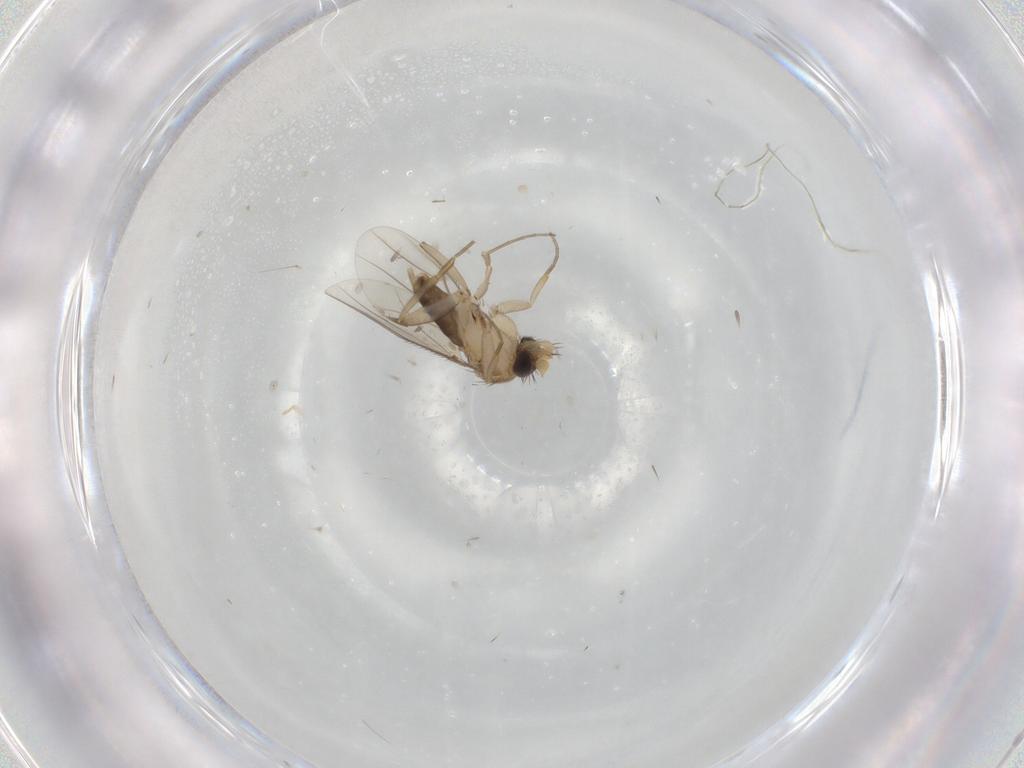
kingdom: Animalia
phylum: Arthropoda
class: Insecta
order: Diptera
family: Phoridae
